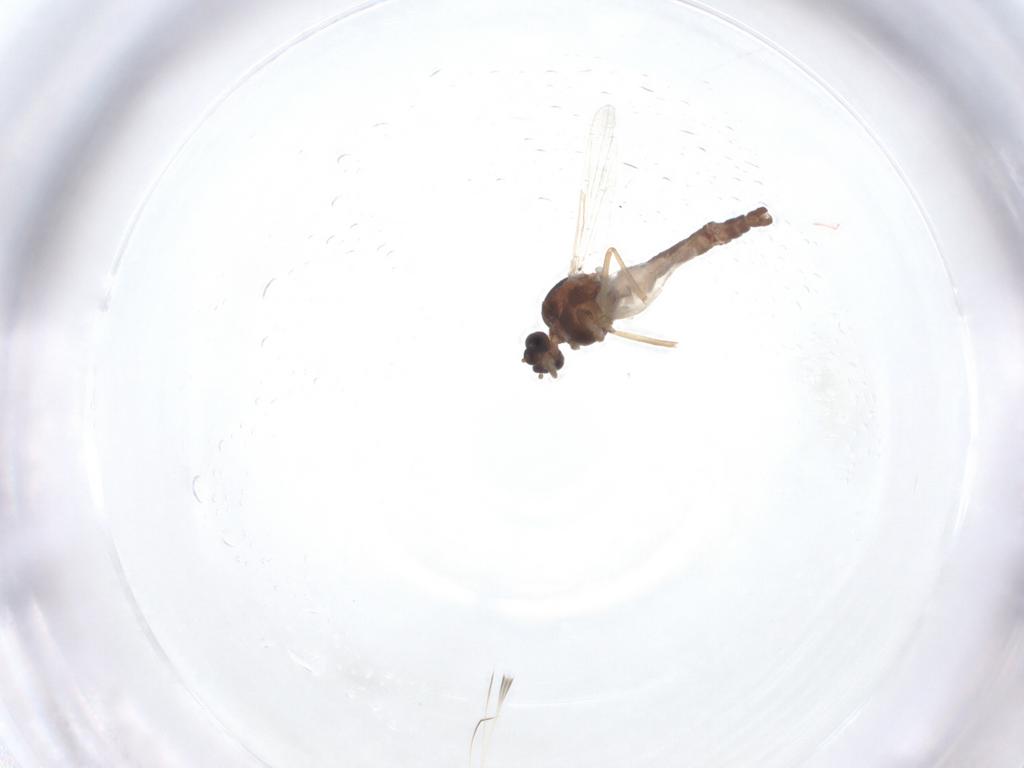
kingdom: Animalia
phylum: Arthropoda
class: Insecta
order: Diptera
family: Ceratopogonidae
